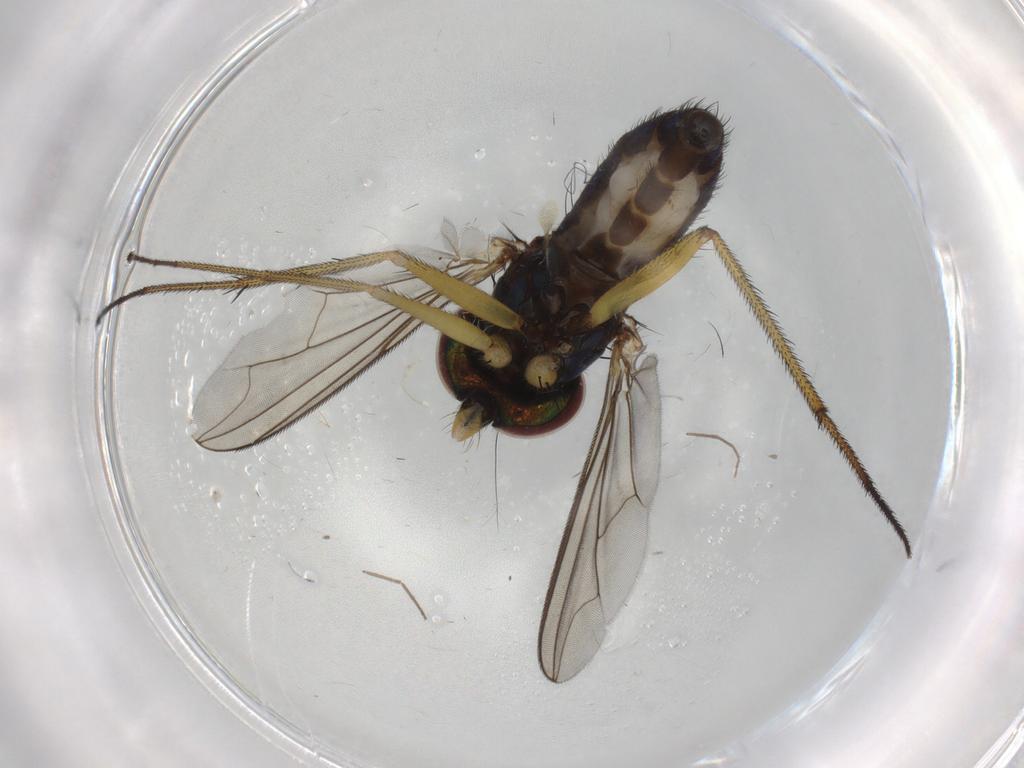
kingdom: Animalia
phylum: Arthropoda
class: Insecta
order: Diptera
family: Dolichopodidae
